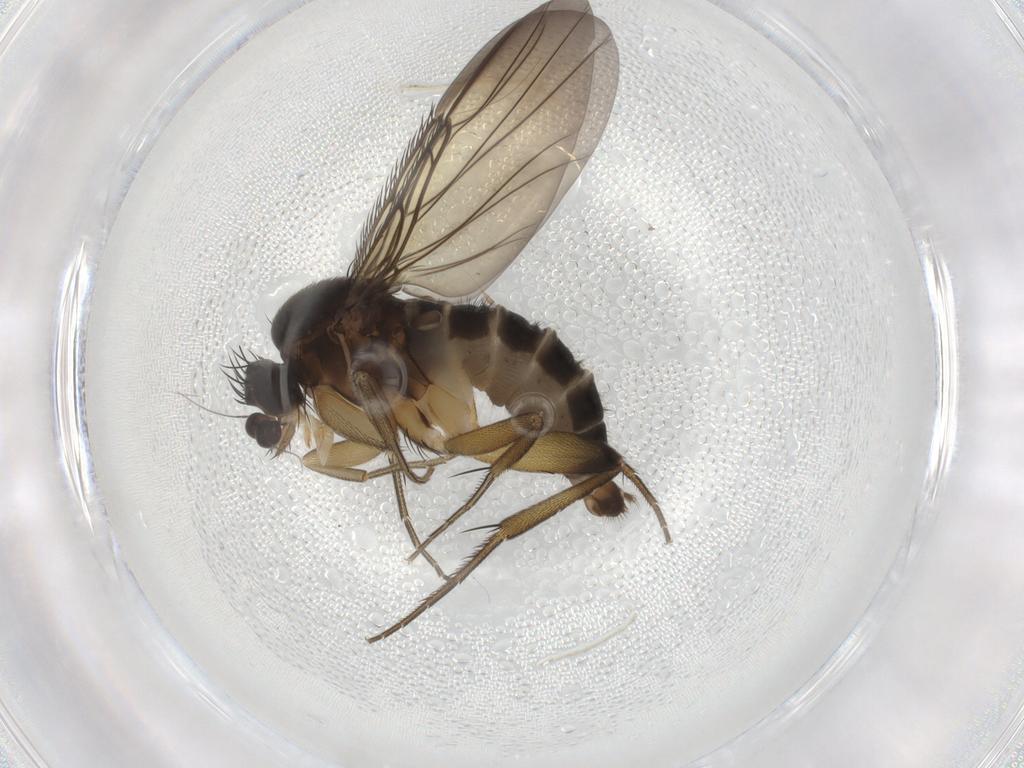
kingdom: Animalia
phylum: Arthropoda
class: Insecta
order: Diptera
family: Phoridae
